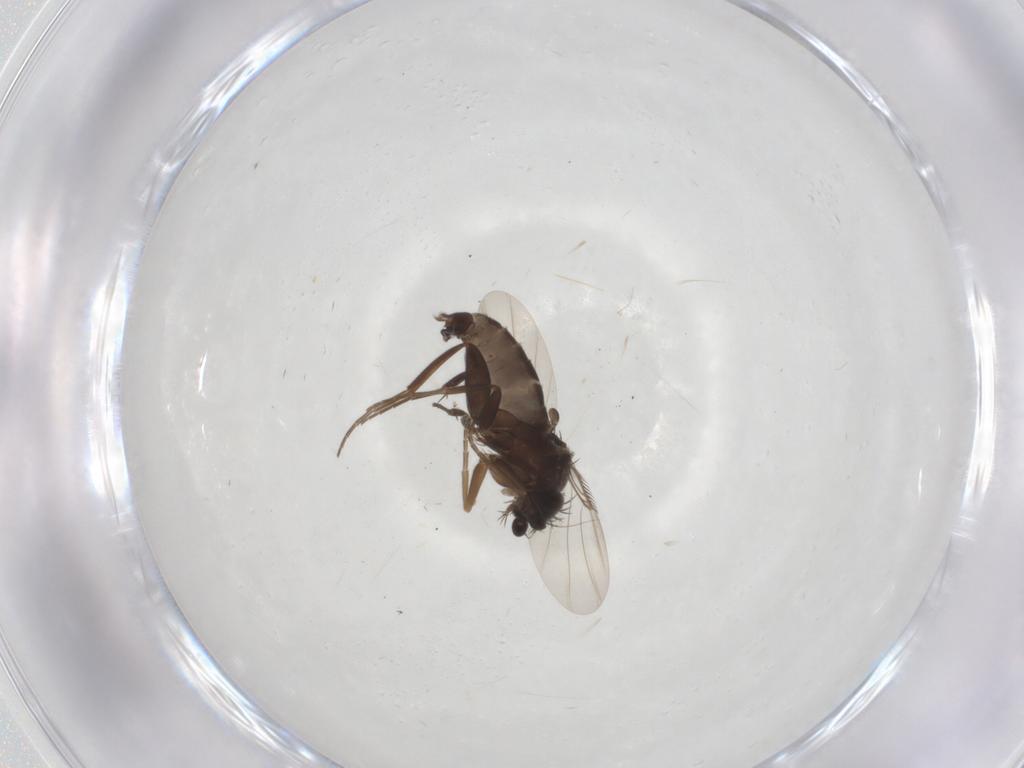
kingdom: Animalia
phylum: Arthropoda
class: Insecta
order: Diptera
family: Phoridae
